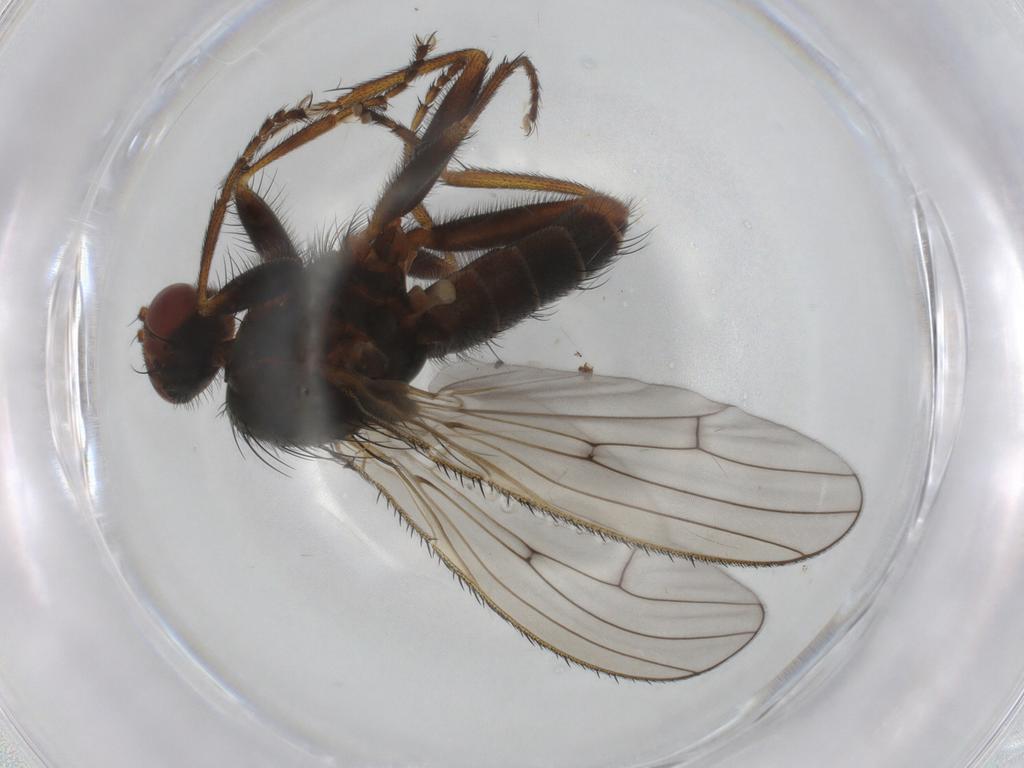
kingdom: Animalia
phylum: Arthropoda
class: Insecta
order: Diptera
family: Heleomyzidae
